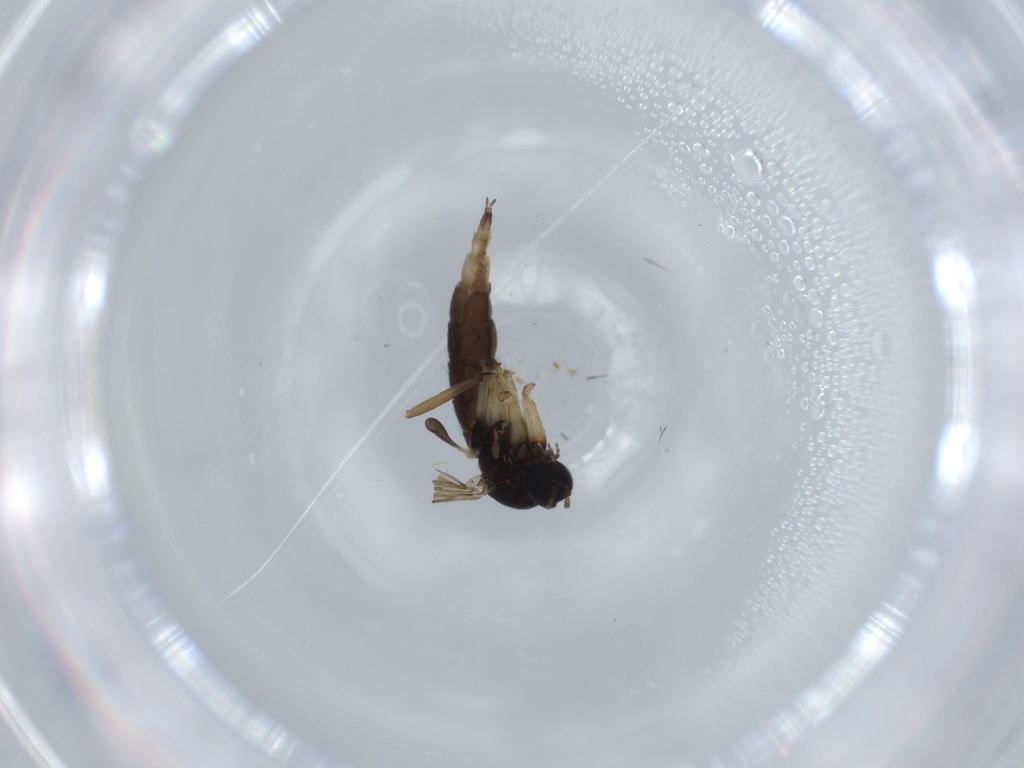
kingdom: Animalia
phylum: Arthropoda
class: Insecta
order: Diptera
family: Sciaridae
